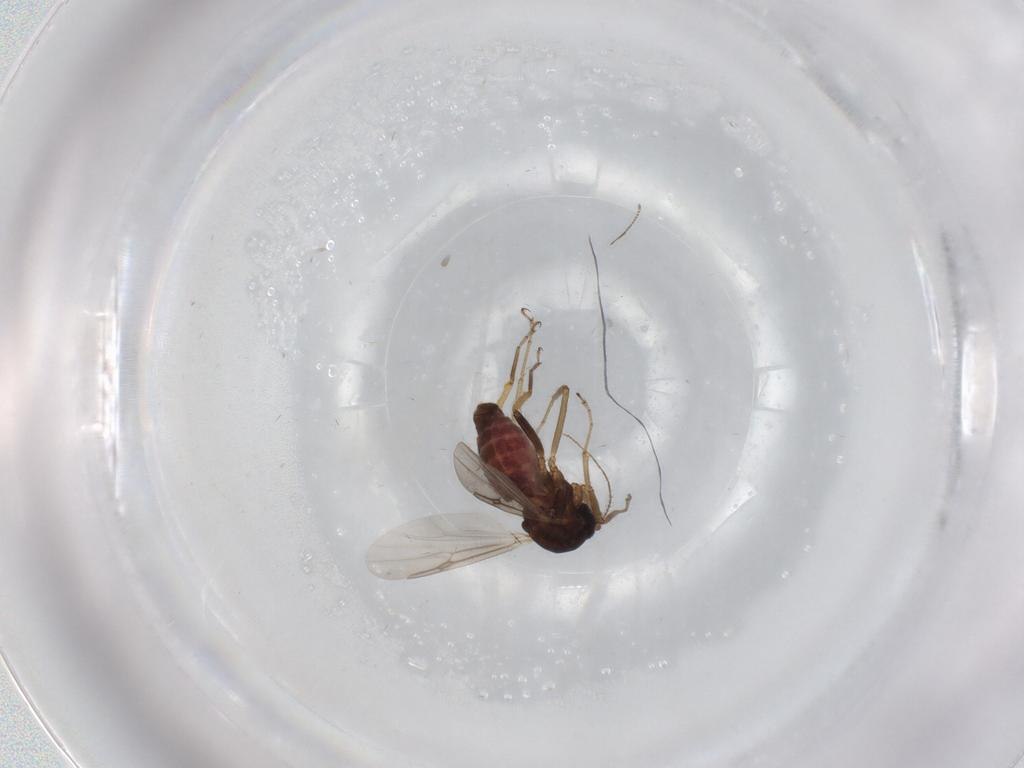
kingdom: Animalia
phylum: Arthropoda
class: Insecta
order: Diptera
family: Ceratopogonidae
